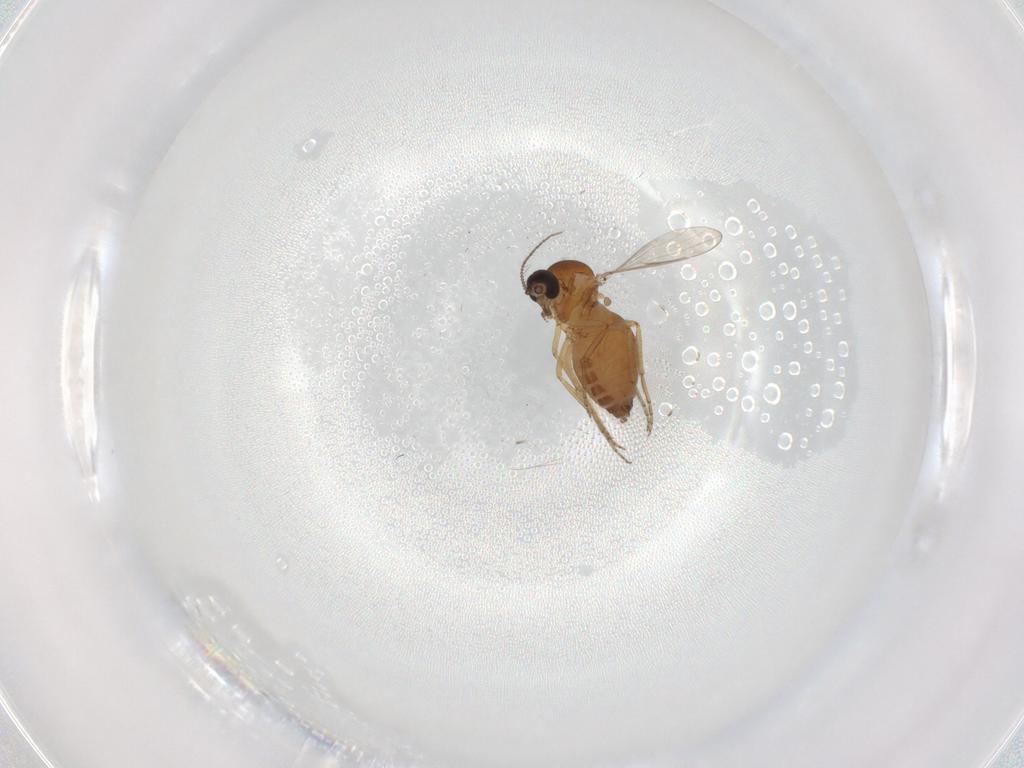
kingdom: Animalia
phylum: Arthropoda
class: Insecta
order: Diptera
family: Ceratopogonidae
